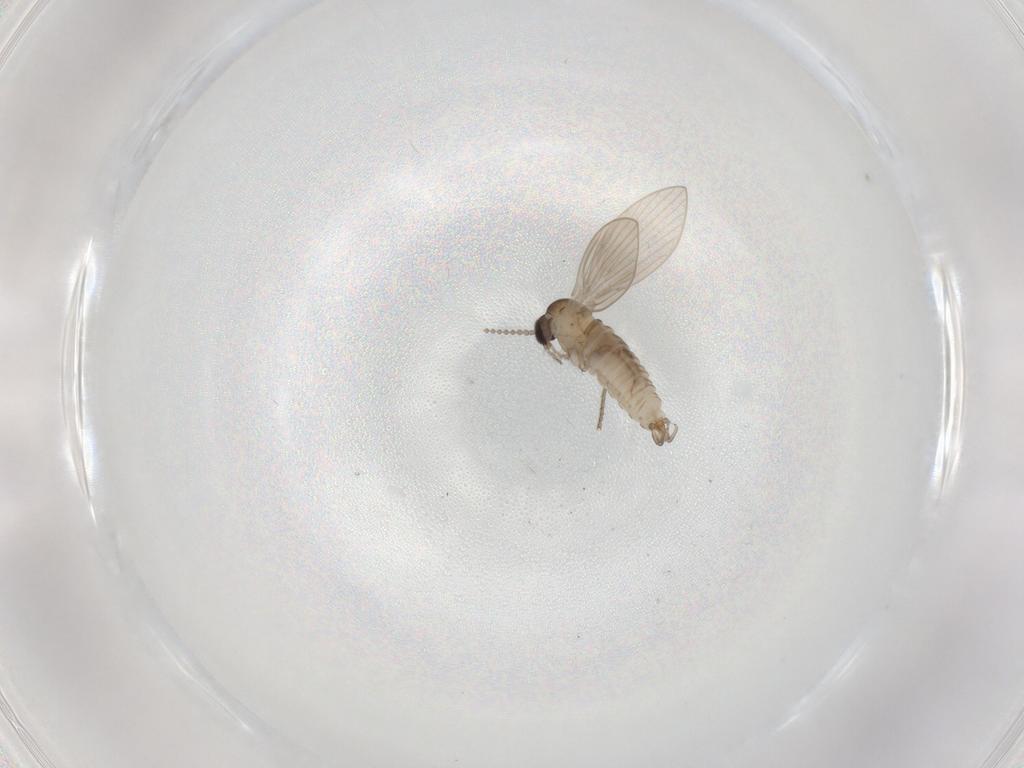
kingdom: Animalia
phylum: Arthropoda
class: Insecta
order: Diptera
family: Psychodidae
